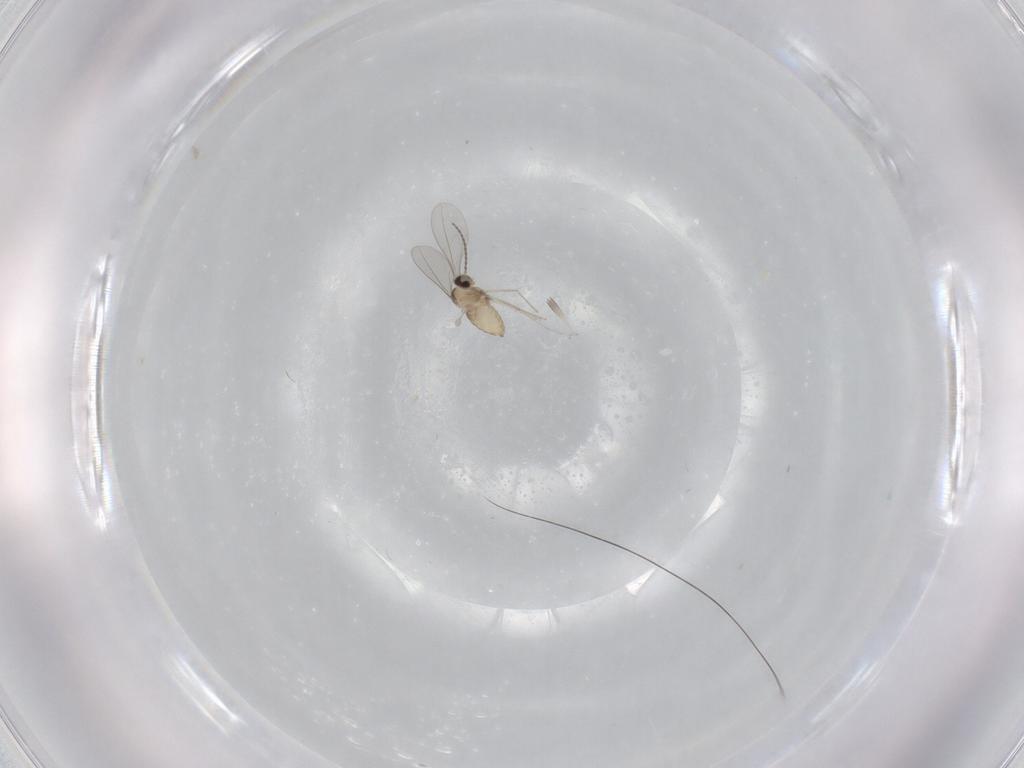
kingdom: Animalia
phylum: Arthropoda
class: Insecta
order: Diptera
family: Cecidomyiidae
